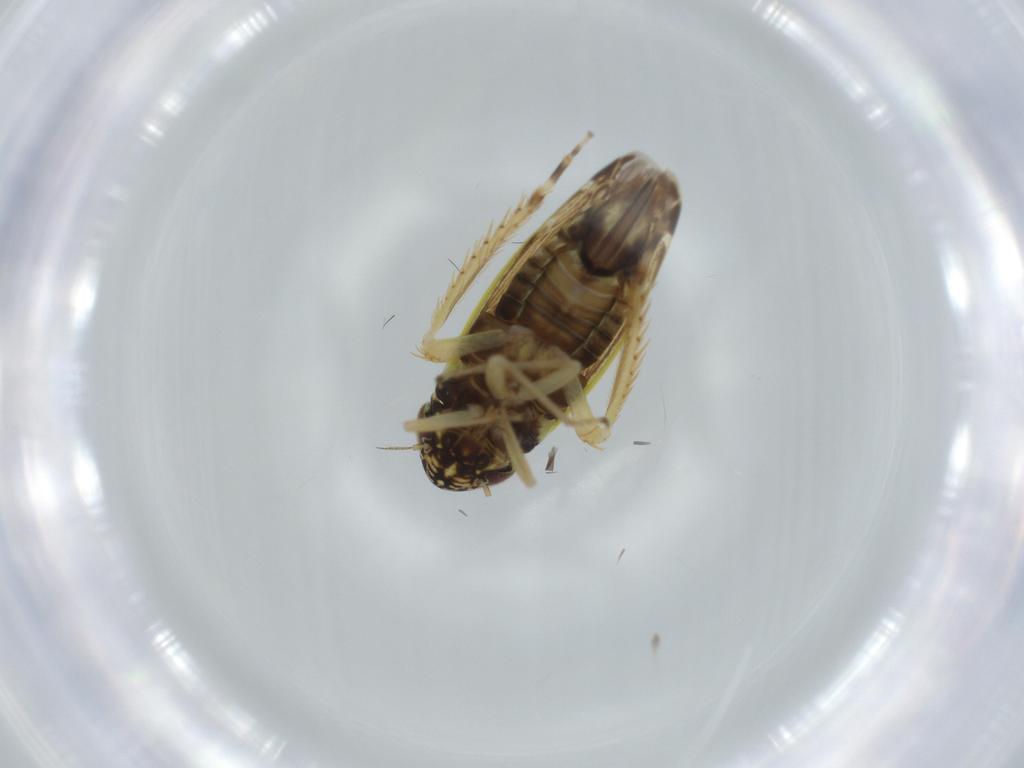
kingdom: Animalia
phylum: Arthropoda
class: Insecta
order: Hemiptera
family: Cicadellidae
